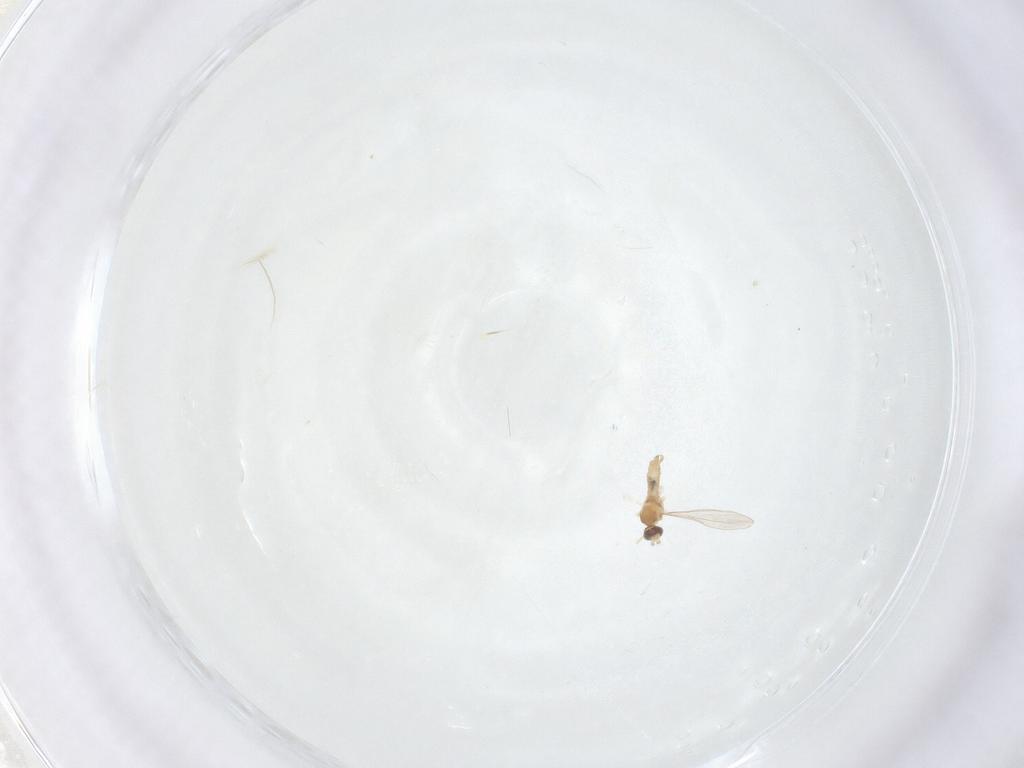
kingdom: Animalia
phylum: Arthropoda
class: Insecta
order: Diptera
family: Cecidomyiidae
